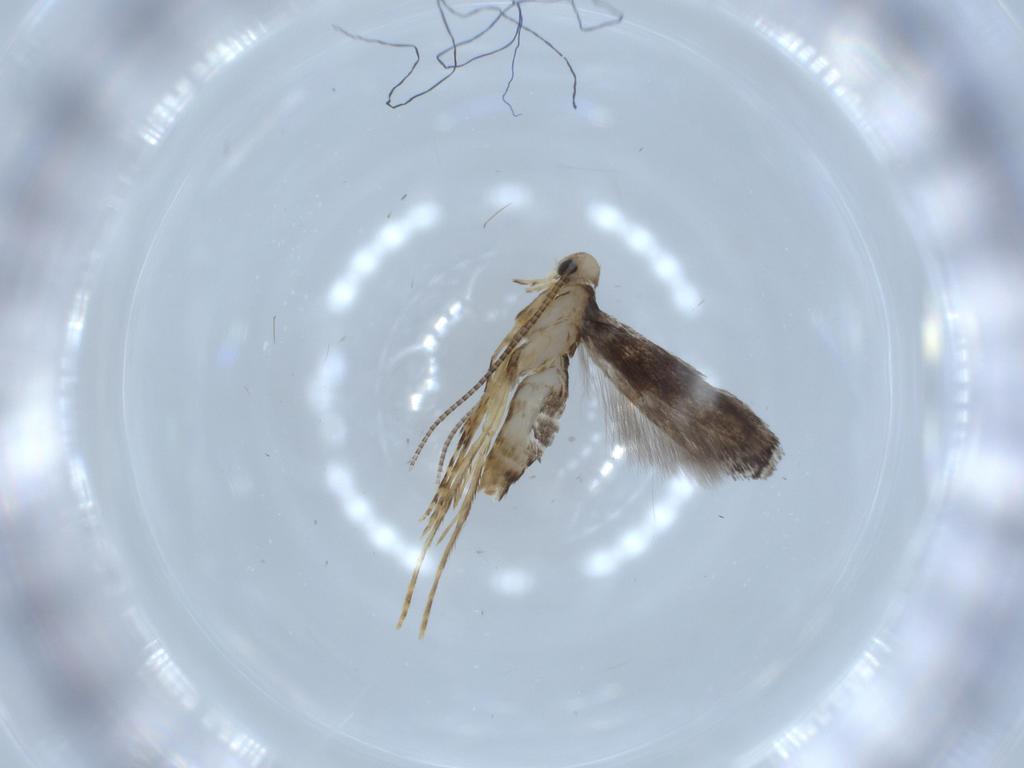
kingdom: Animalia
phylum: Arthropoda
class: Insecta
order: Lepidoptera
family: Gracillariidae
